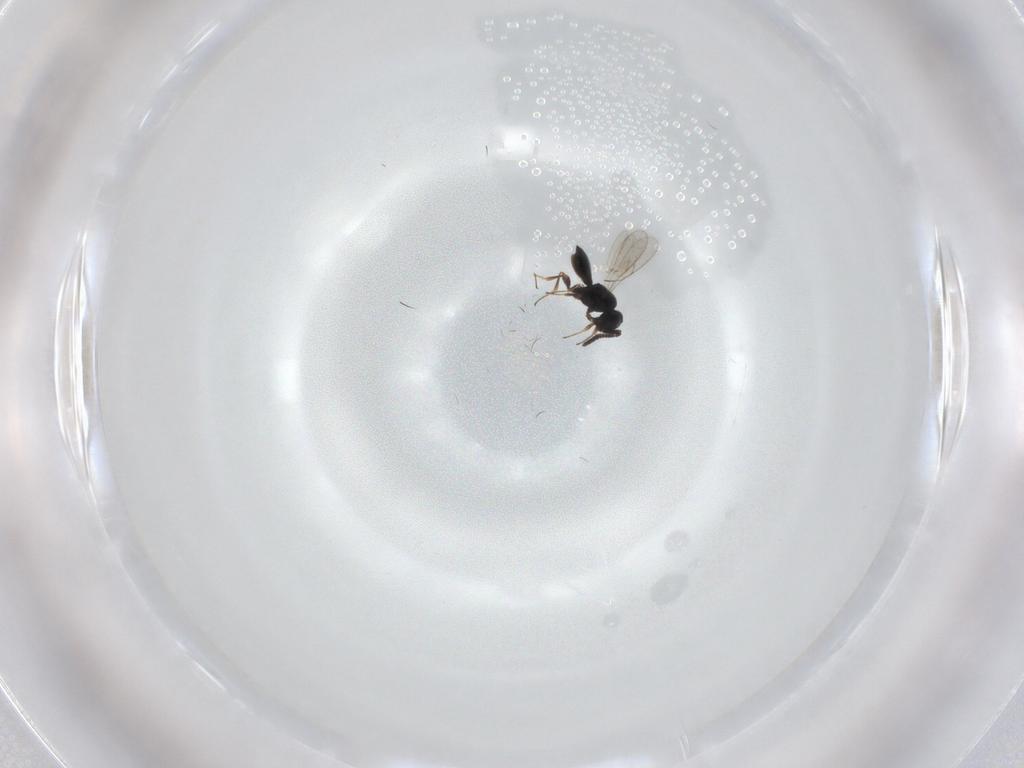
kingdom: Animalia
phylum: Arthropoda
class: Insecta
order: Hymenoptera
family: Scelionidae
